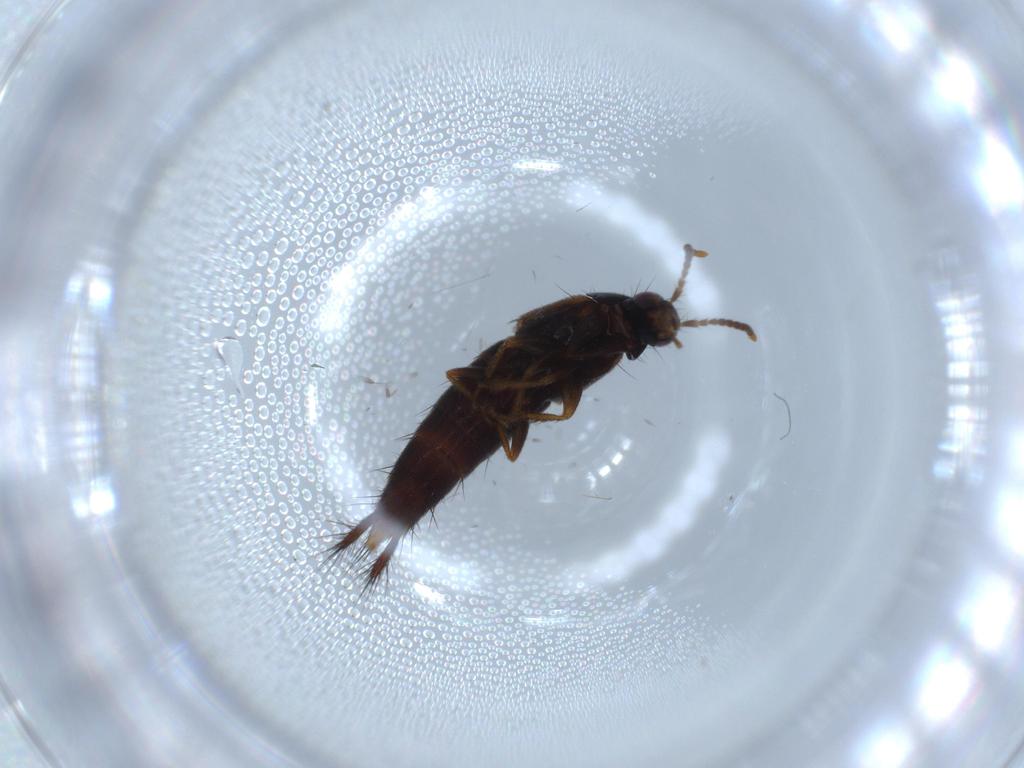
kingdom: Animalia
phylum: Arthropoda
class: Insecta
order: Coleoptera
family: Staphylinidae
